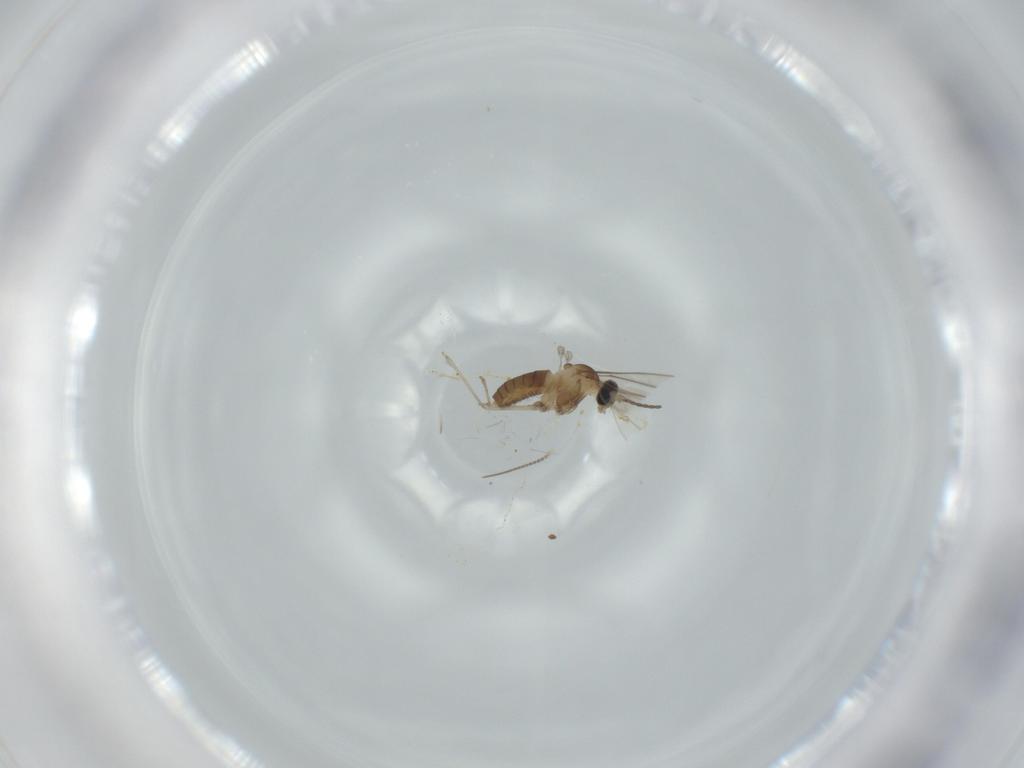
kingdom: Animalia
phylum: Arthropoda
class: Insecta
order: Diptera
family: Cecidomyiidae
